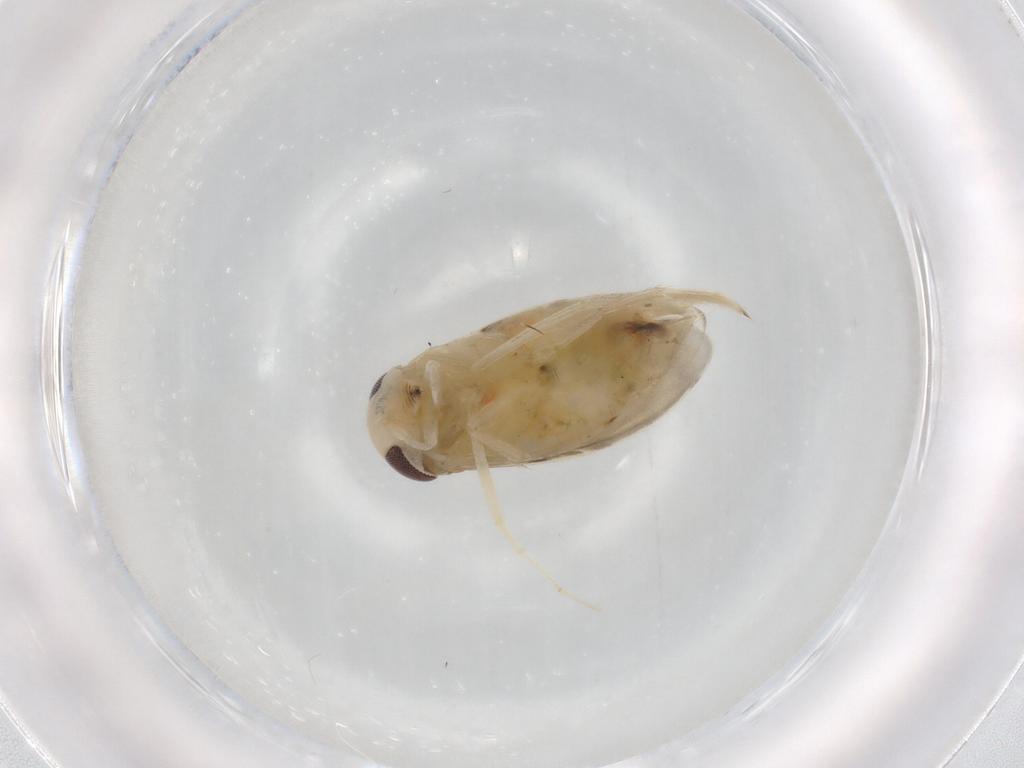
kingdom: Animalia
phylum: Arthropoda
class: Insecta
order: Hemiptera
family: Corixidae
